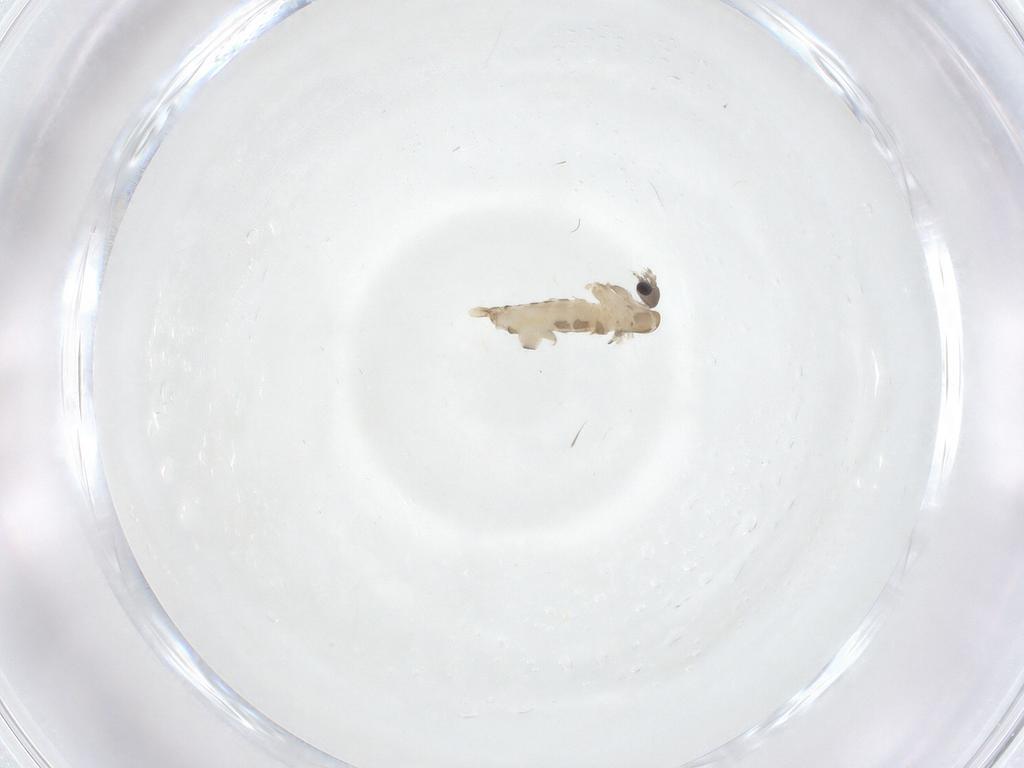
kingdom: Animalia
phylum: Arthropoda
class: Insecta
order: Diptera
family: Psychodidae
